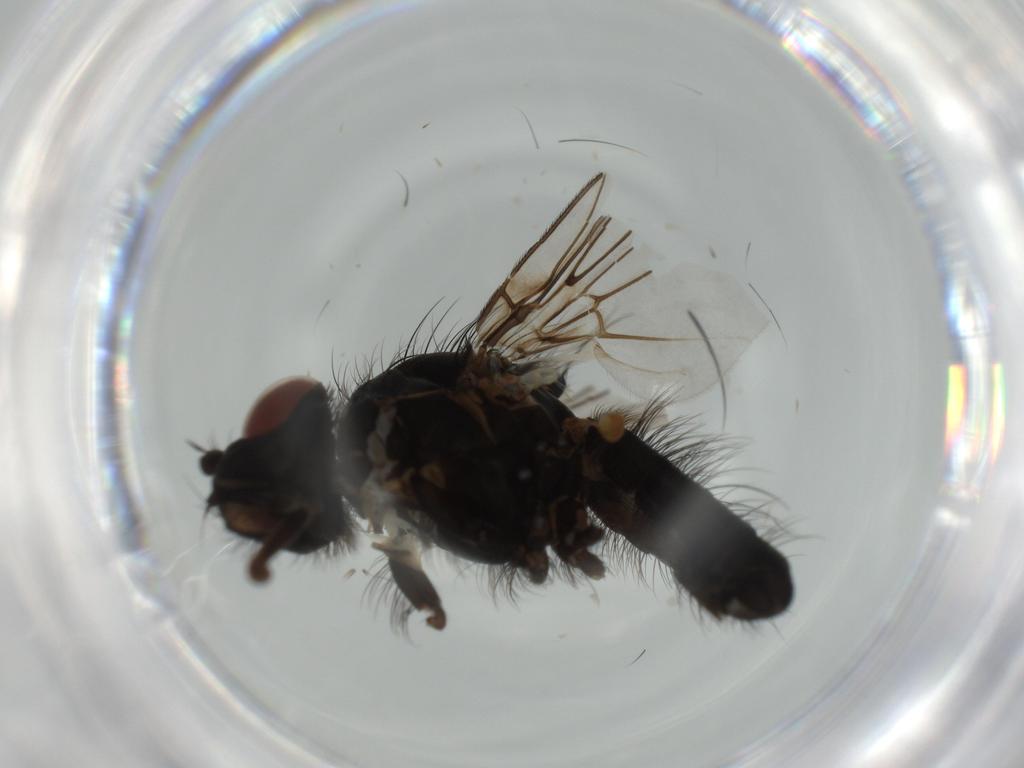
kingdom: Animalia
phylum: Arthropoda
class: Insecta
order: Diptera
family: Anthomyiidae
